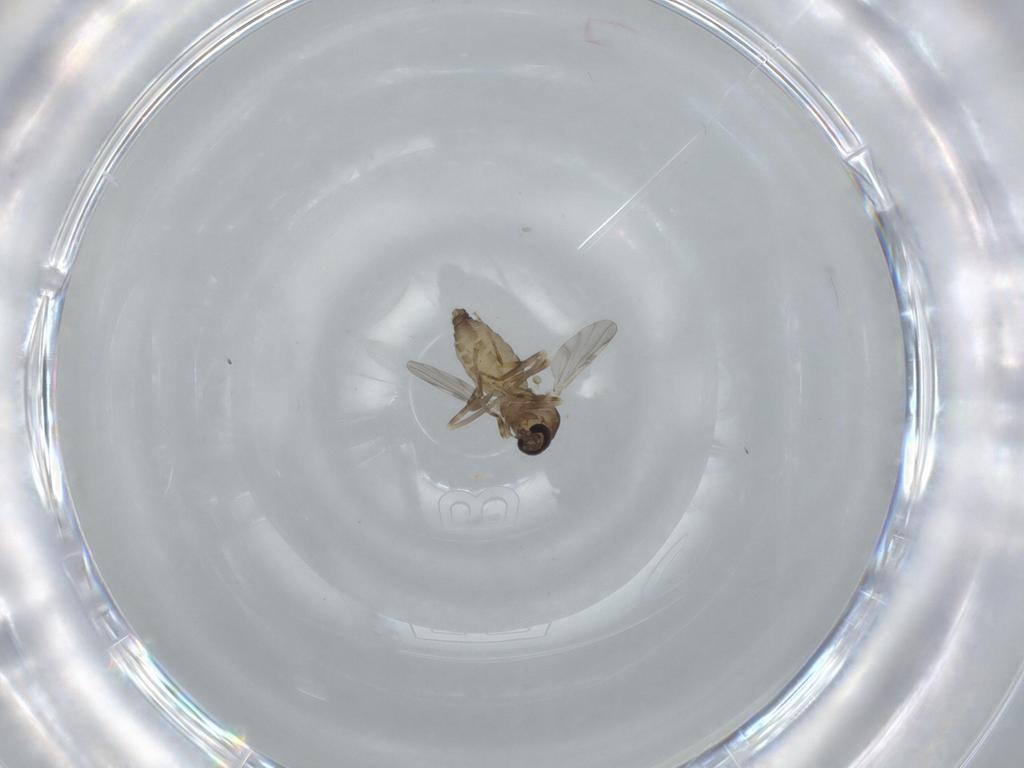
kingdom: Animalia
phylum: Arthropoda
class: Insecta
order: Diptera
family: Ceratopogonidae
